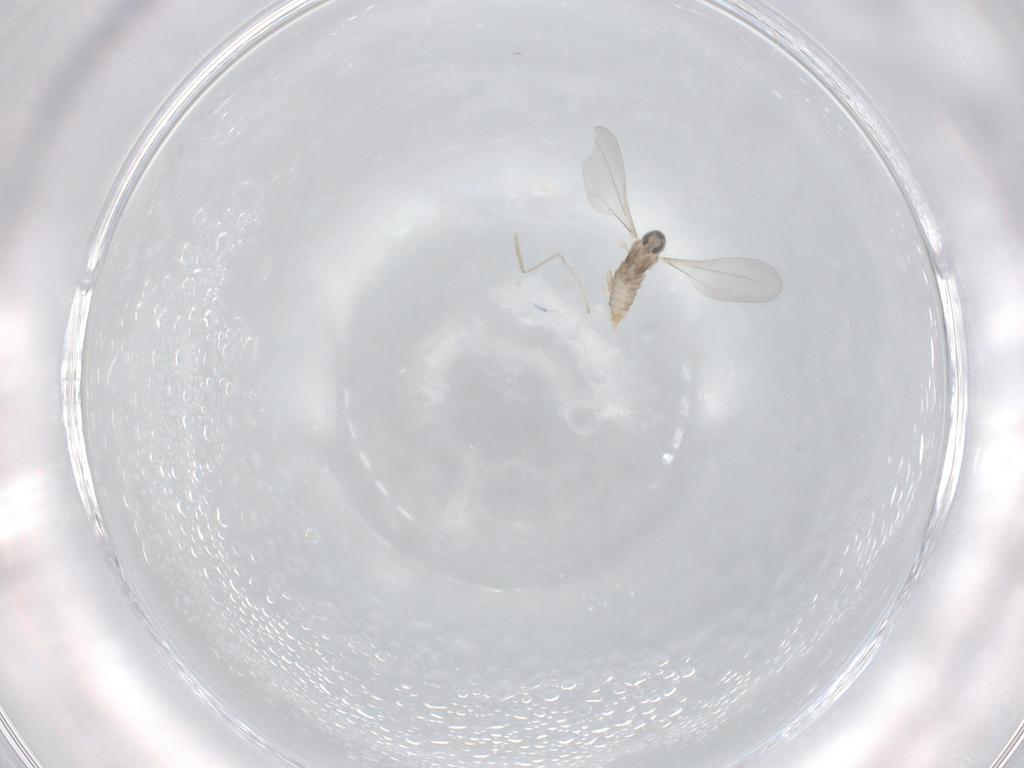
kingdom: Animalia
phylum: Arthropoda
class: Insecta
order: Diptera
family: Cecidomyiidae
